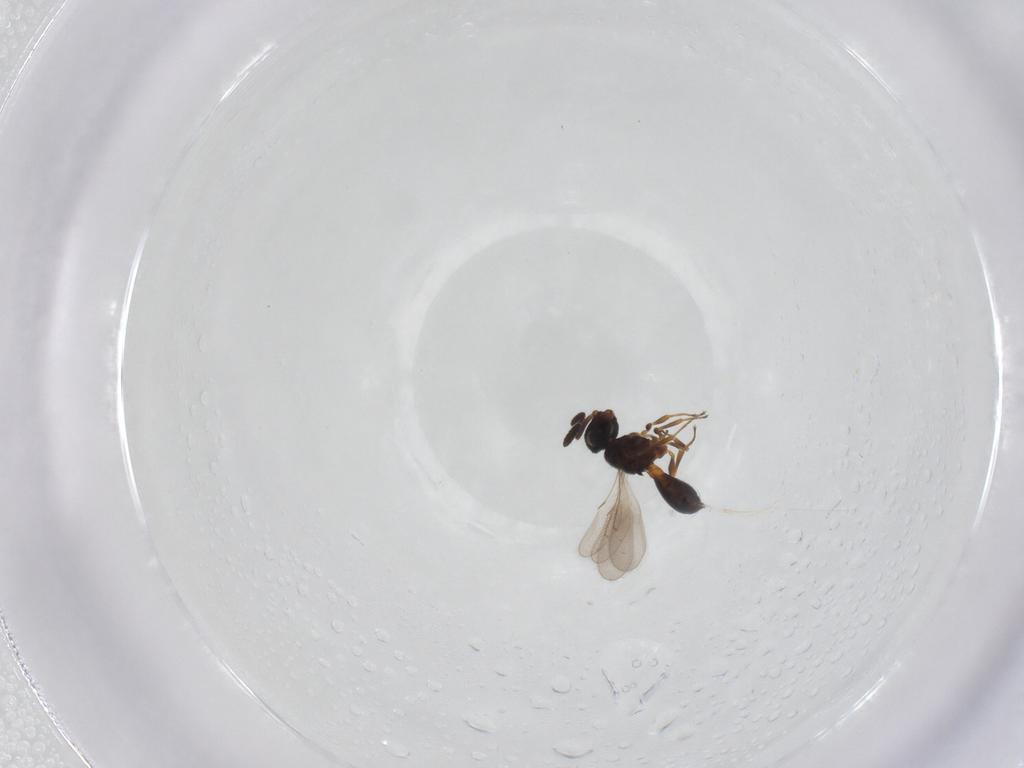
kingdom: Animalia
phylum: Arthropoda
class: Insecta
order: Hymenoptera
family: Scelionidae
